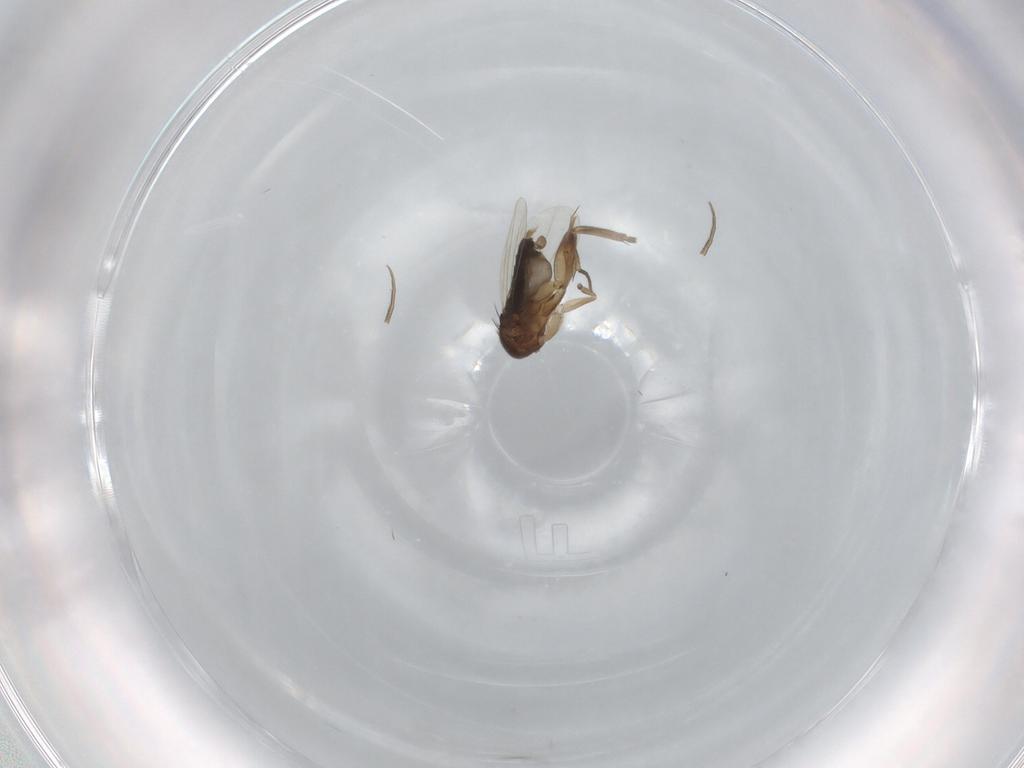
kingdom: Animalia
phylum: Arthropoda
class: Insecta
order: Diptera
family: Phoridae
